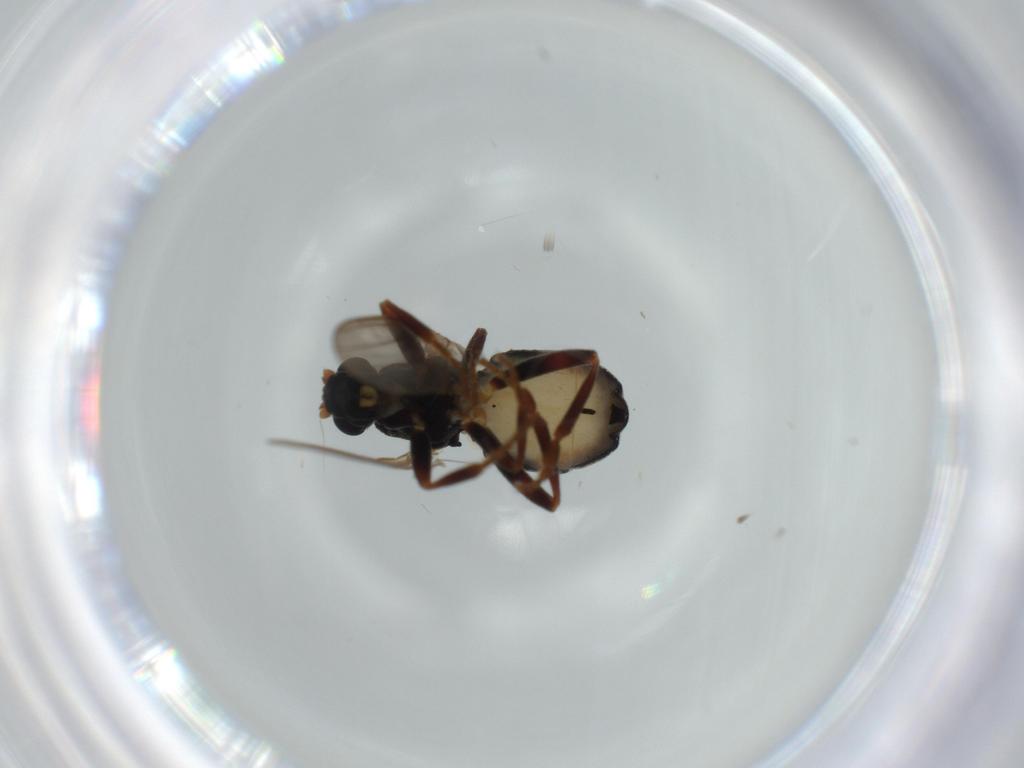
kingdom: Animalia
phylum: Arthropoda
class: Insecta
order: Diptera
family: Sphaeroceridae
